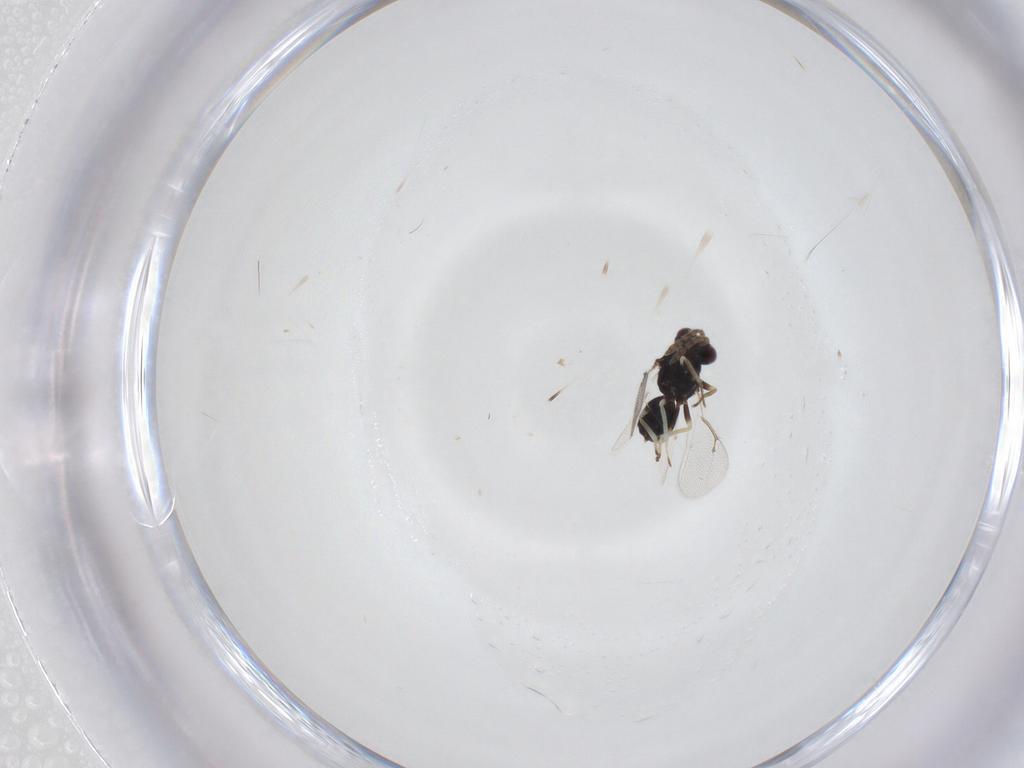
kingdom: Animalia
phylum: Arthropoda
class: Insecta
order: Hymenoptera
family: Eulophidae
